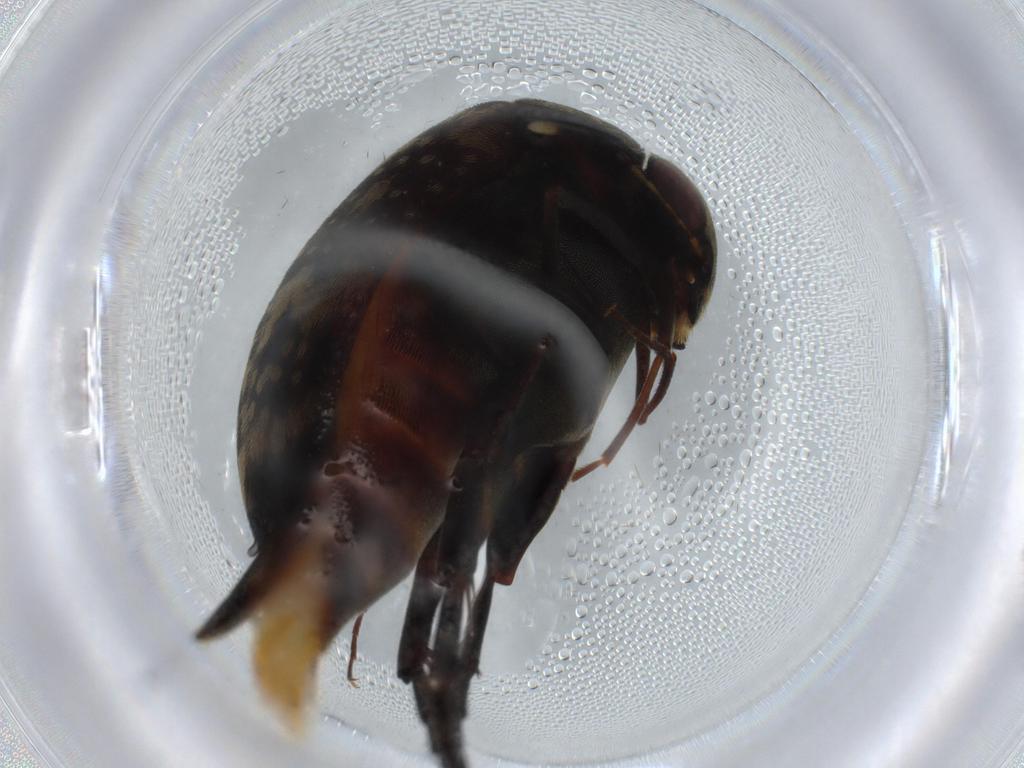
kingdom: Animalia
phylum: Arthropoda
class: Insecta
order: Coleoptera
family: Mordellidae
